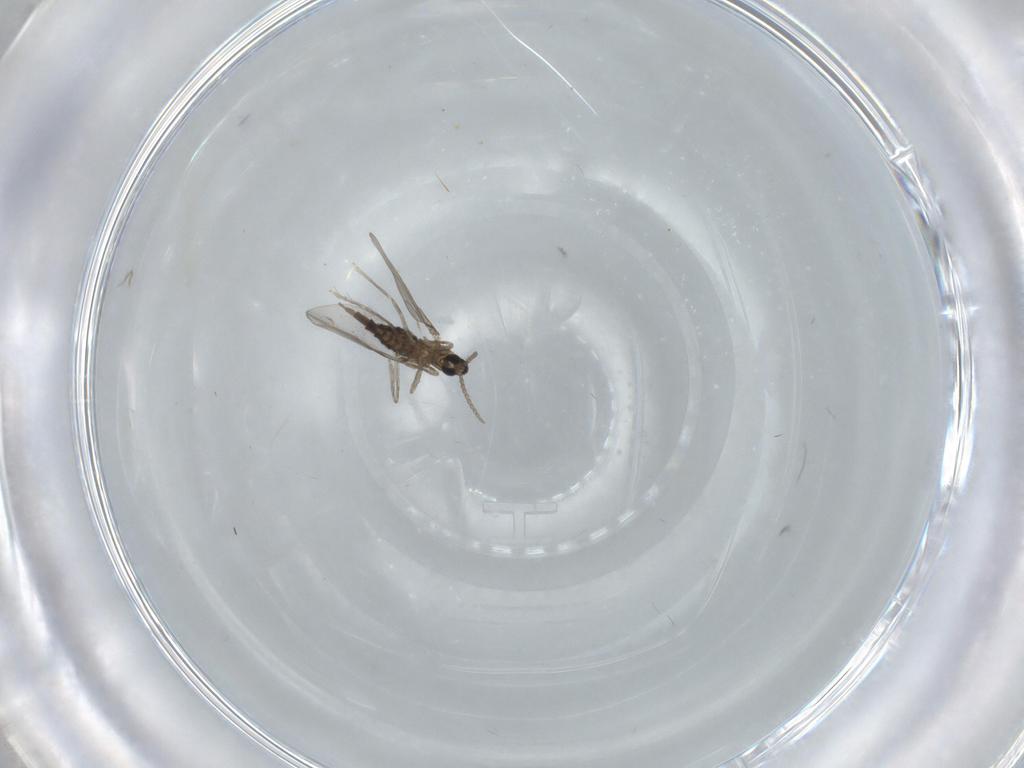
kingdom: Animalia
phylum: Arthropoda
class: Insecta
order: Diptera
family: Cecidomyiidae
